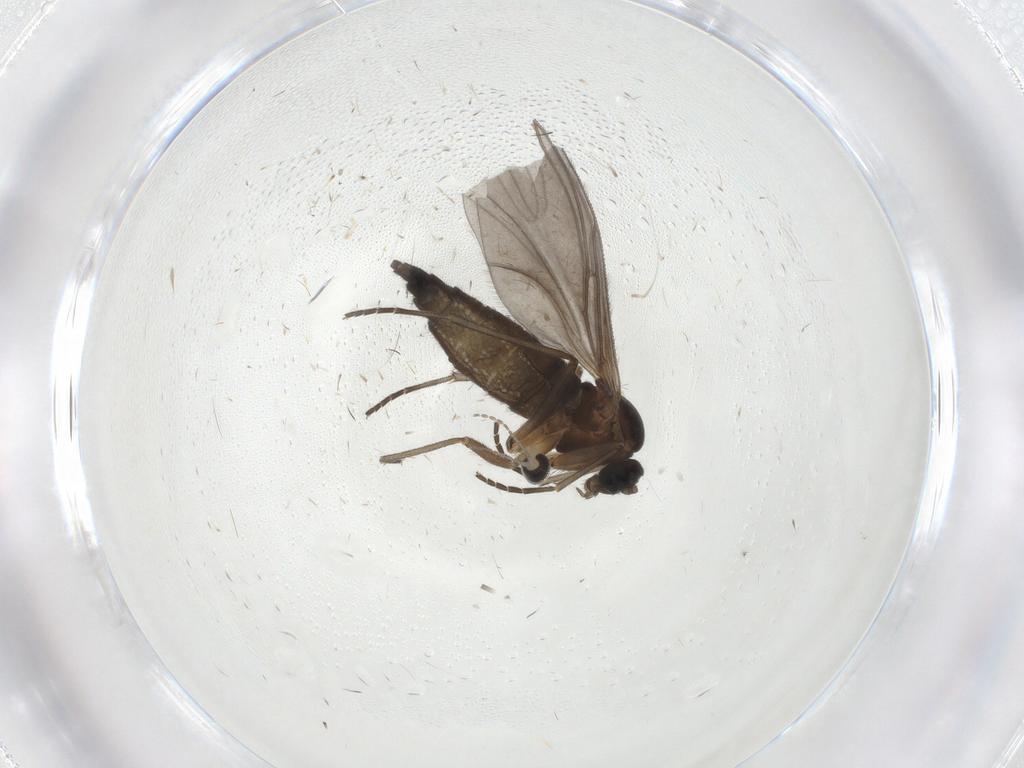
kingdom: Animalia
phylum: Arthropoda
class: Insecta
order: Diptera
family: Sciaridae
